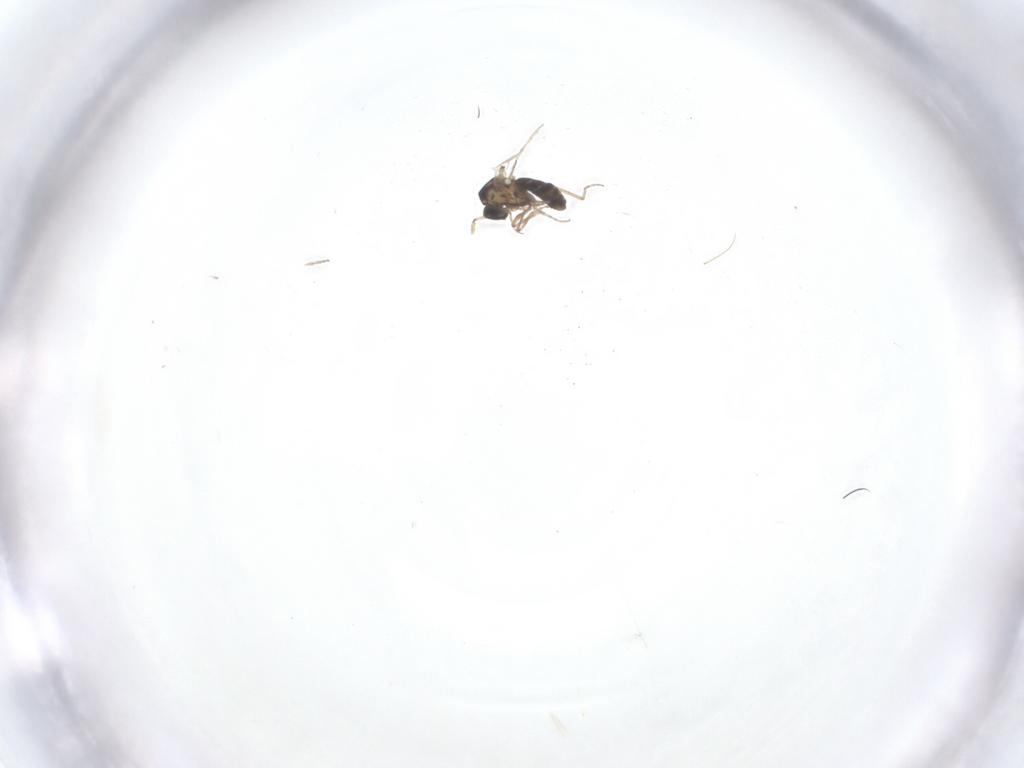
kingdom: Animalia
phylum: Arthropoda
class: Insecta
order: Diptera
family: Ceratopogonidae
